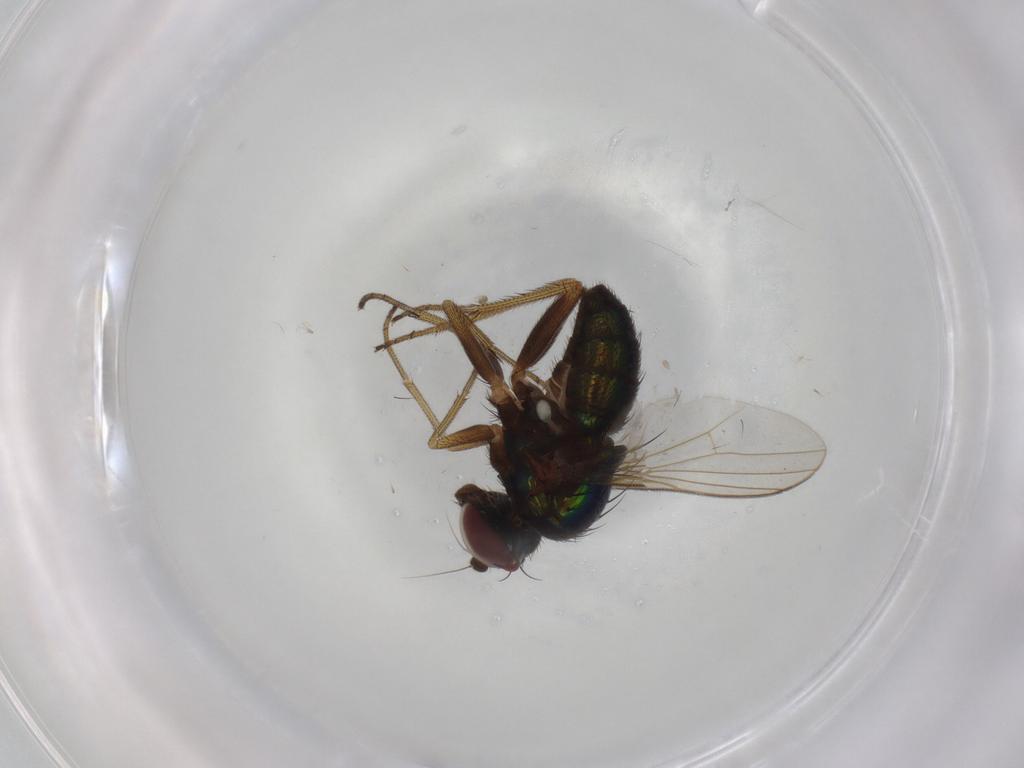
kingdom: Animalia
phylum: Arthropoda
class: Insecta
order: Diptera
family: Dolichopodidae
